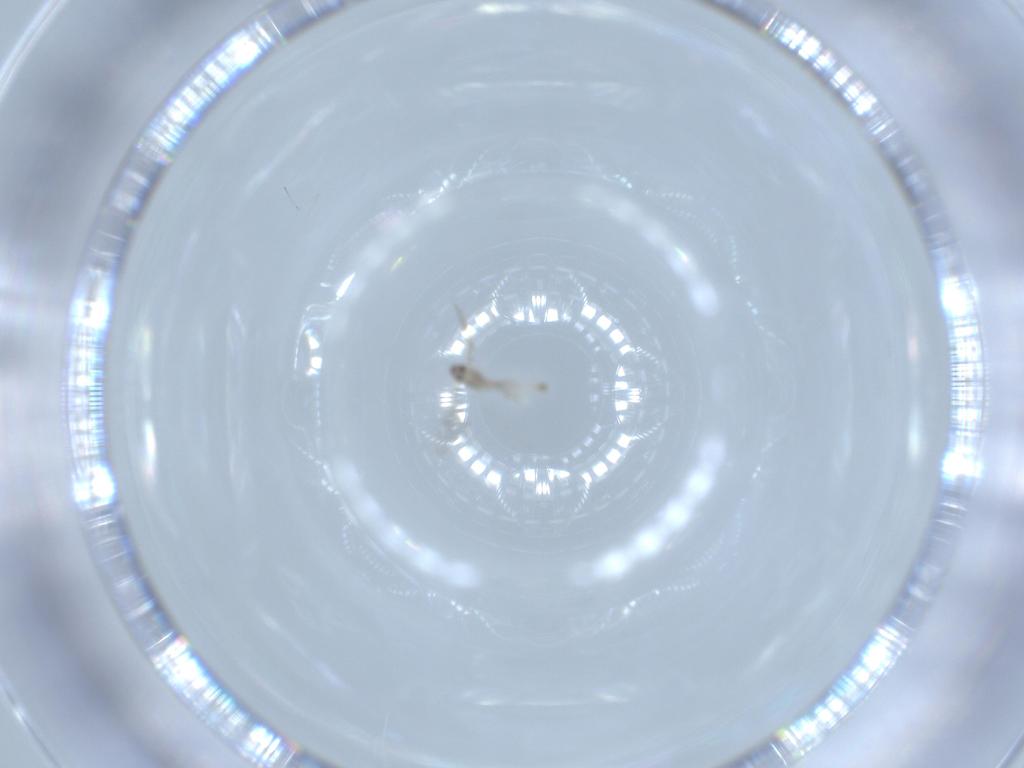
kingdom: Animalia
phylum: Arthropoda
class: Insecta
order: Diptera
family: Cecidomyiidae
